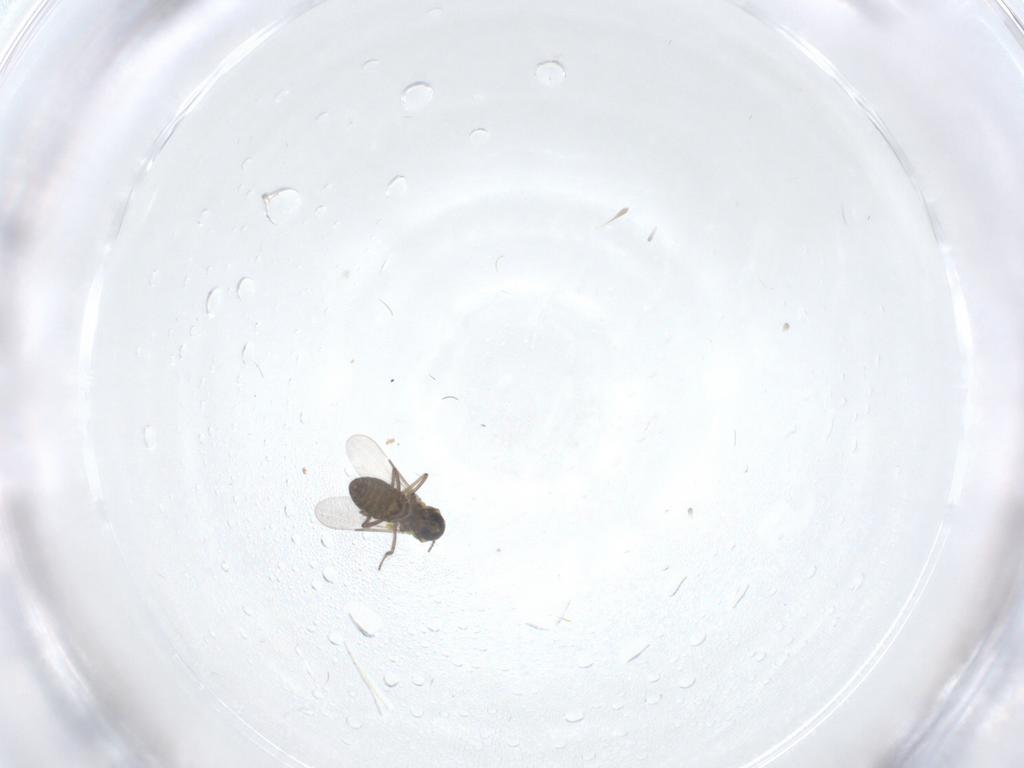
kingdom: Animalia
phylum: Arthropoda
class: Insecta
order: Diptera
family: Ceratopogonidae
